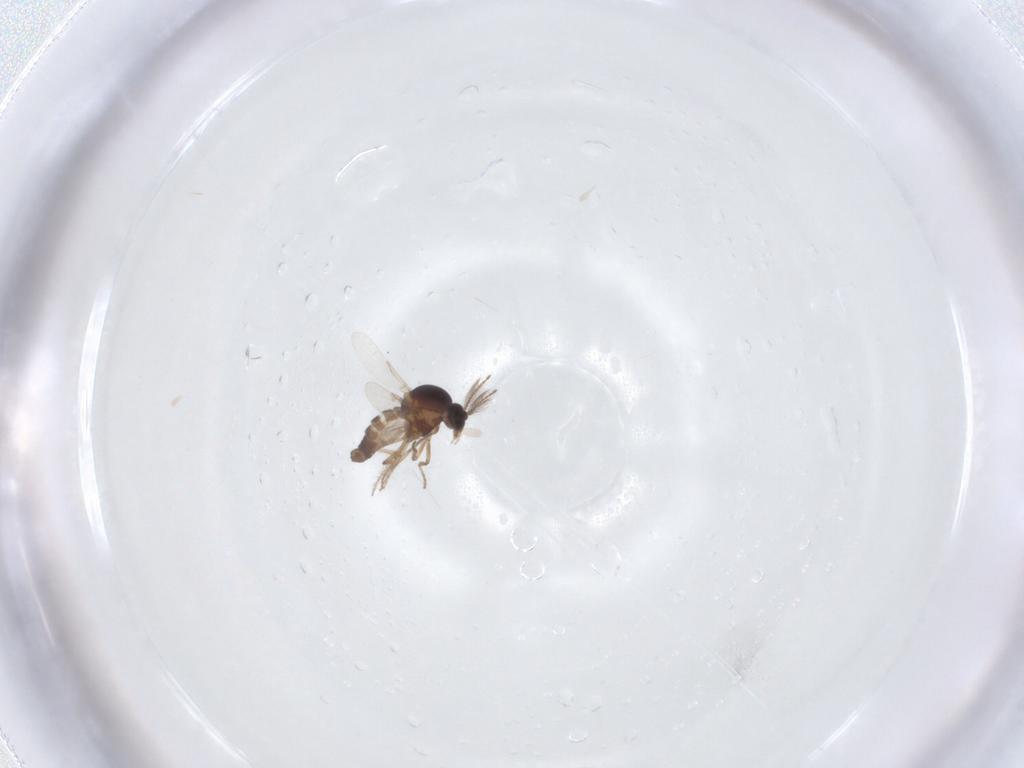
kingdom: Animalia
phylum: Arthropoda
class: Insecta
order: Diptera
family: Ceratopogonidae
